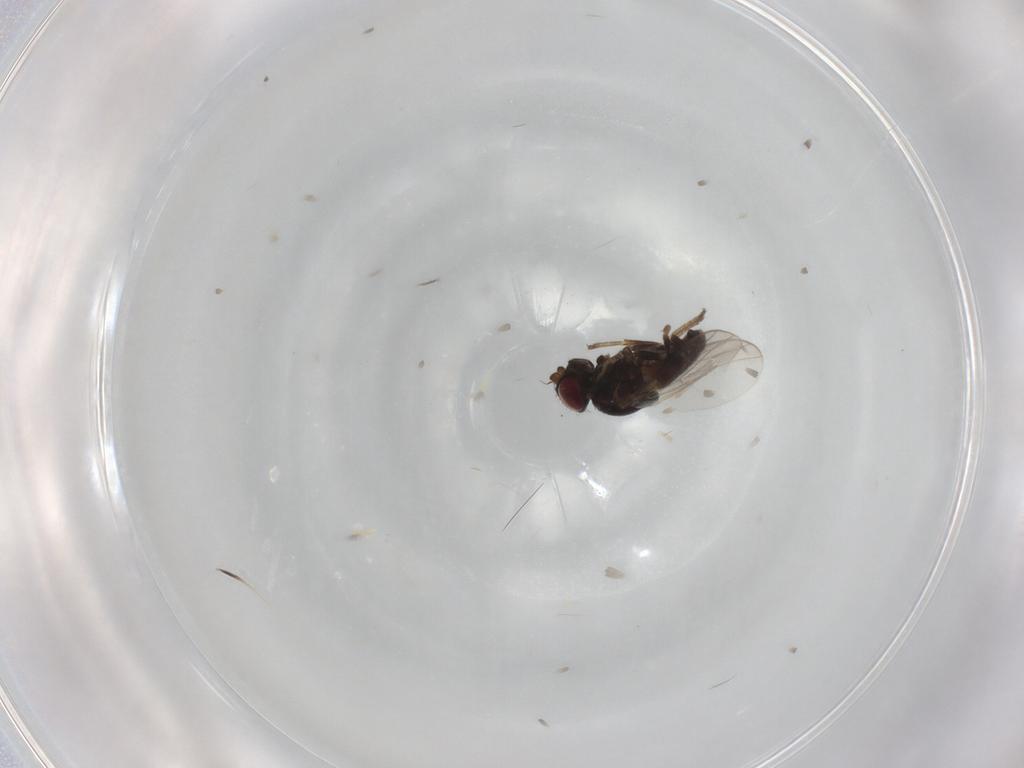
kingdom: Animalia
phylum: Arthropoda
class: Insecta
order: Diptera
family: Chloropidae
